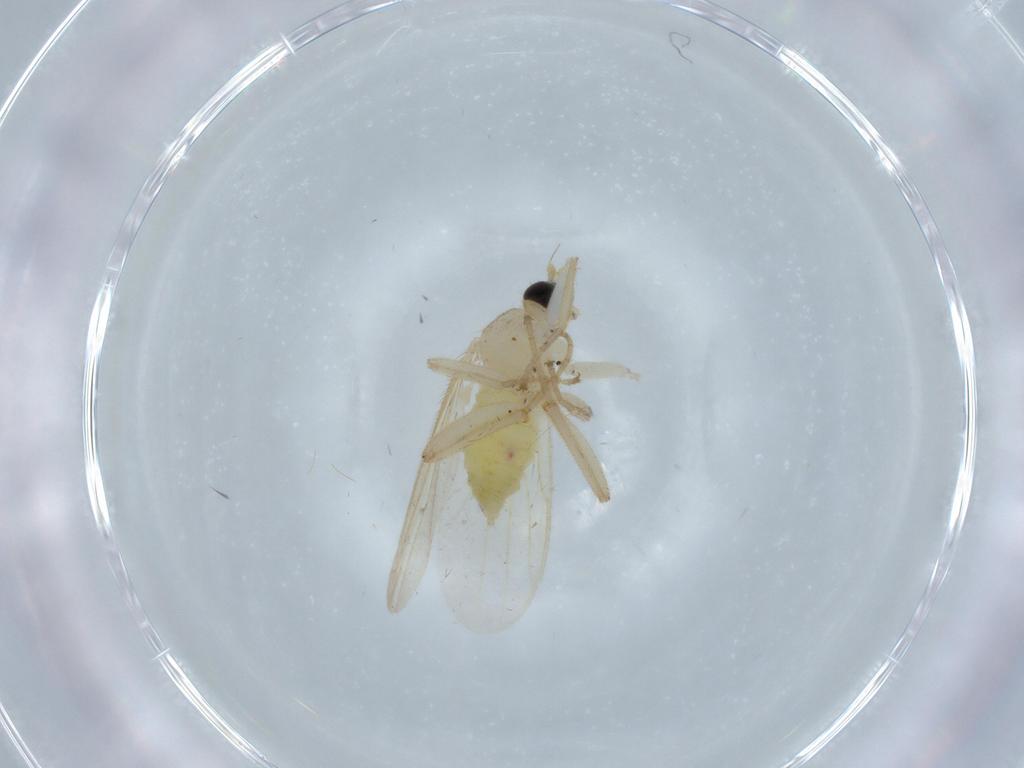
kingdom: Animalia
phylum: Arthropoda
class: Insecta
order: Diptera
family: Hybotidae
